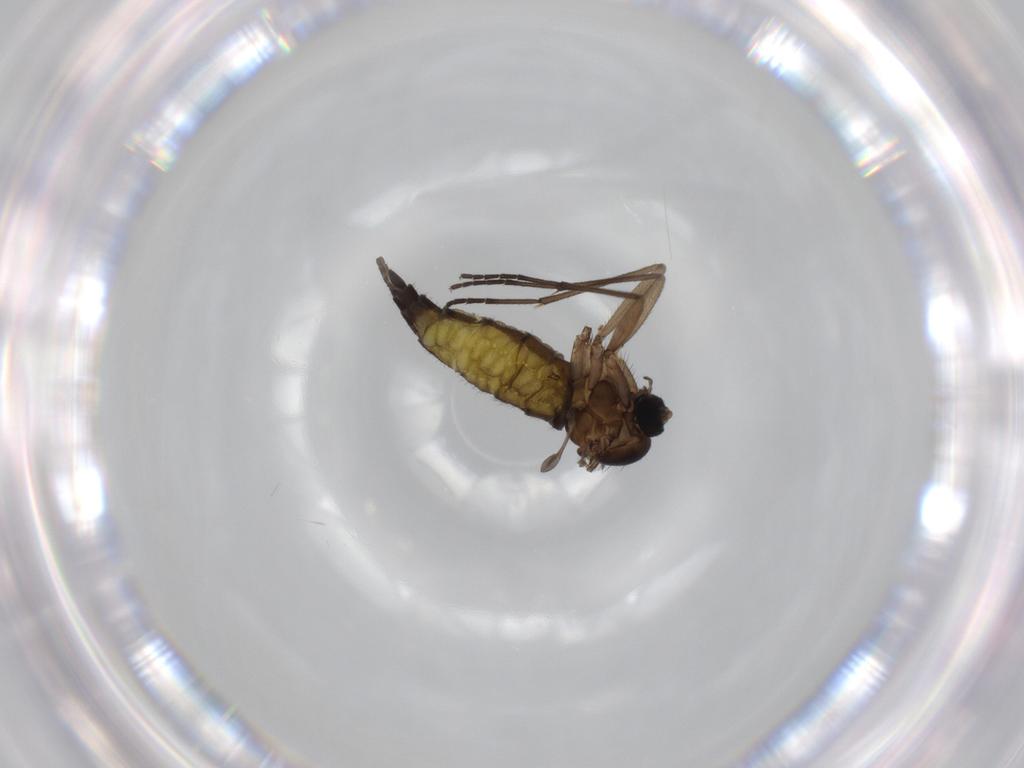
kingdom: Animalia
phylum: Arthropoda
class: Insecta
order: Diptera
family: Sciaridae
